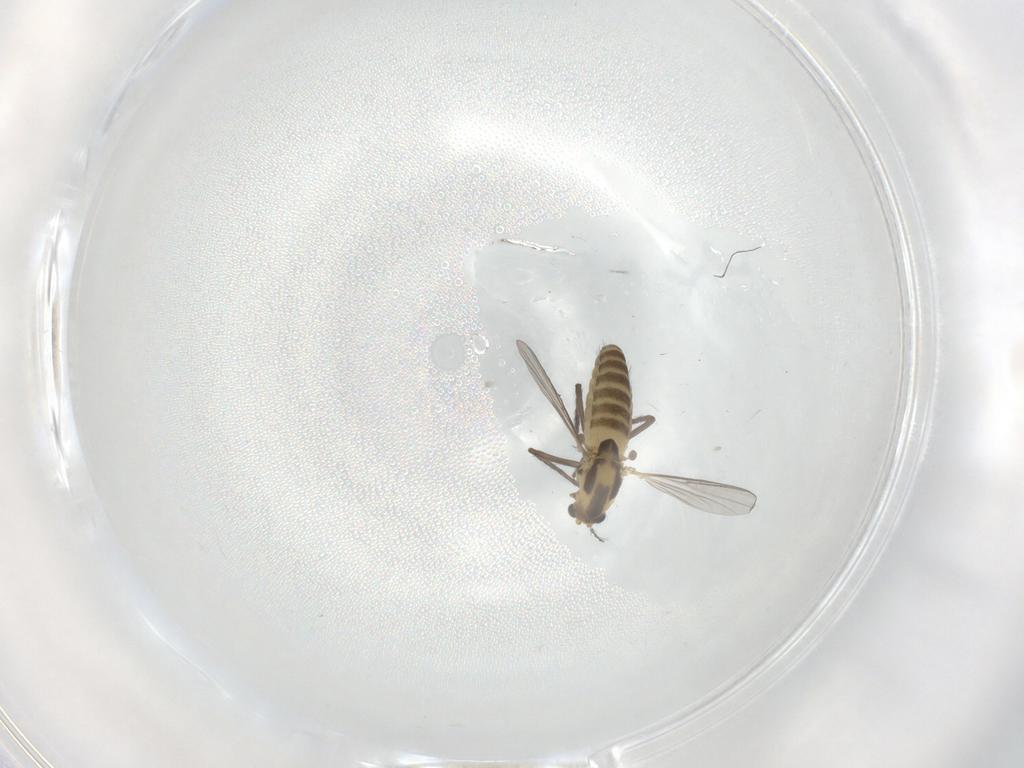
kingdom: Animalia
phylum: Arthropoda
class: Insecta
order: Diptera
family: Chironomidae
